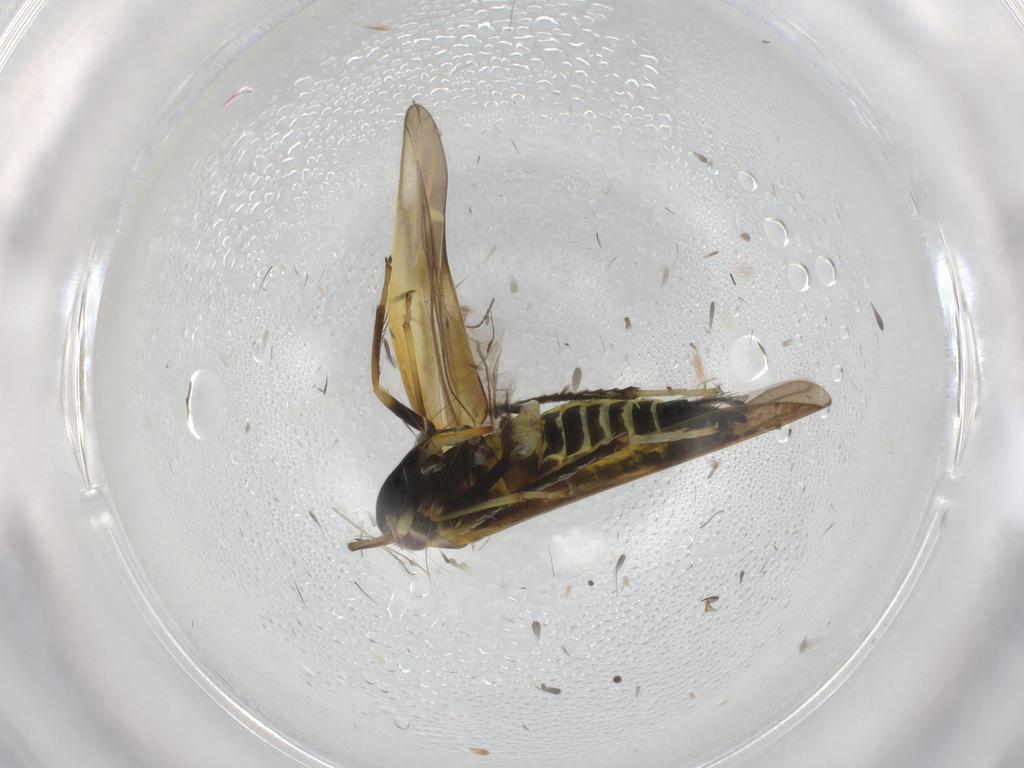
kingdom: Animalia
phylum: Arthropoda
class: Insecta
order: Hemiptera
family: Cicadellidae
